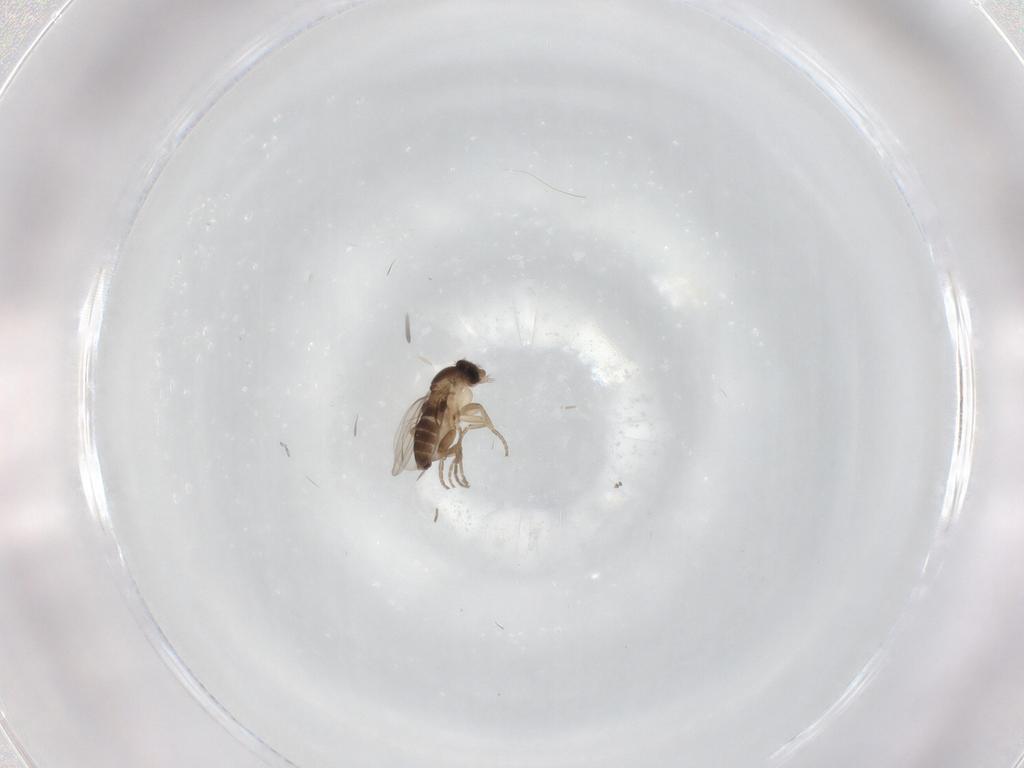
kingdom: Animalia
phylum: Arthropoda
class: Insecta
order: Diptera
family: Cecidomyiidae
